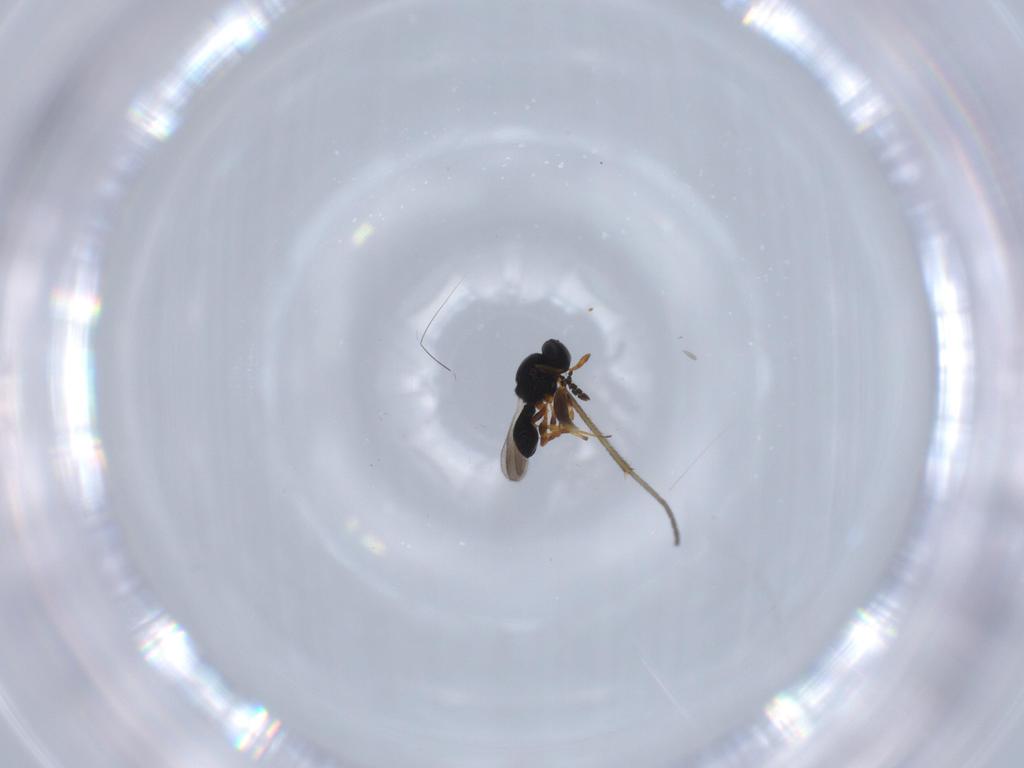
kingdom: Animalia
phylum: Arthropoda
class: Insecta
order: Hymenoptera
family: Platygastridae
